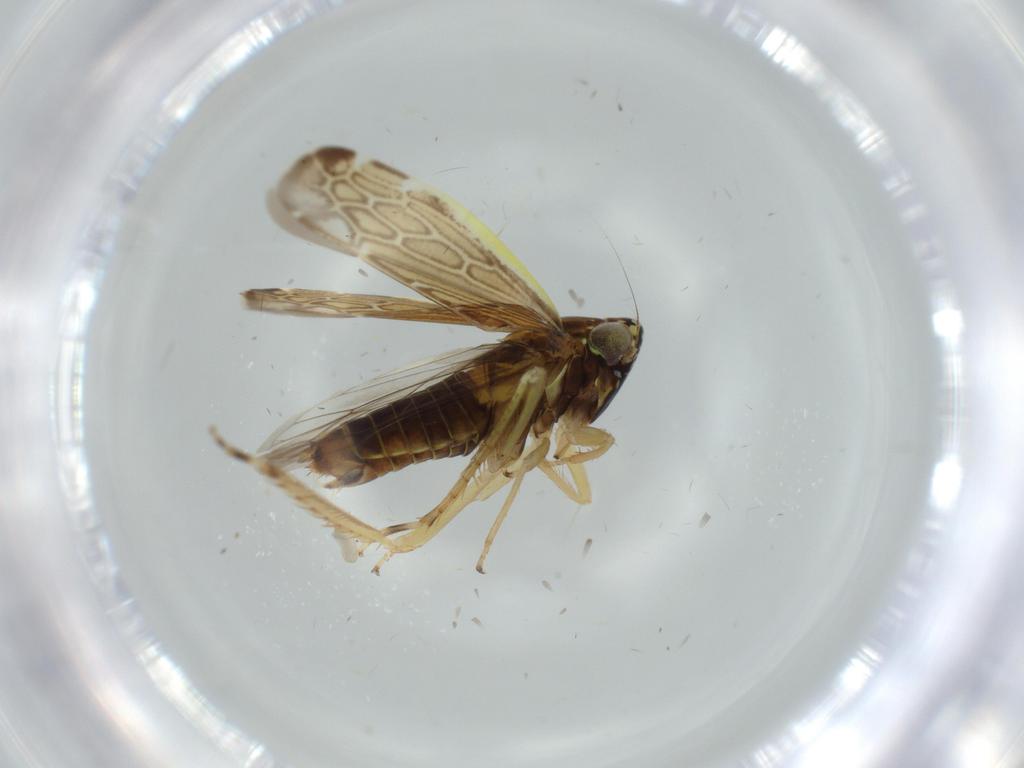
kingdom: Animalia
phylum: Arthropoda
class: Insecta
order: Hemiptera
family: Cicadellidae
